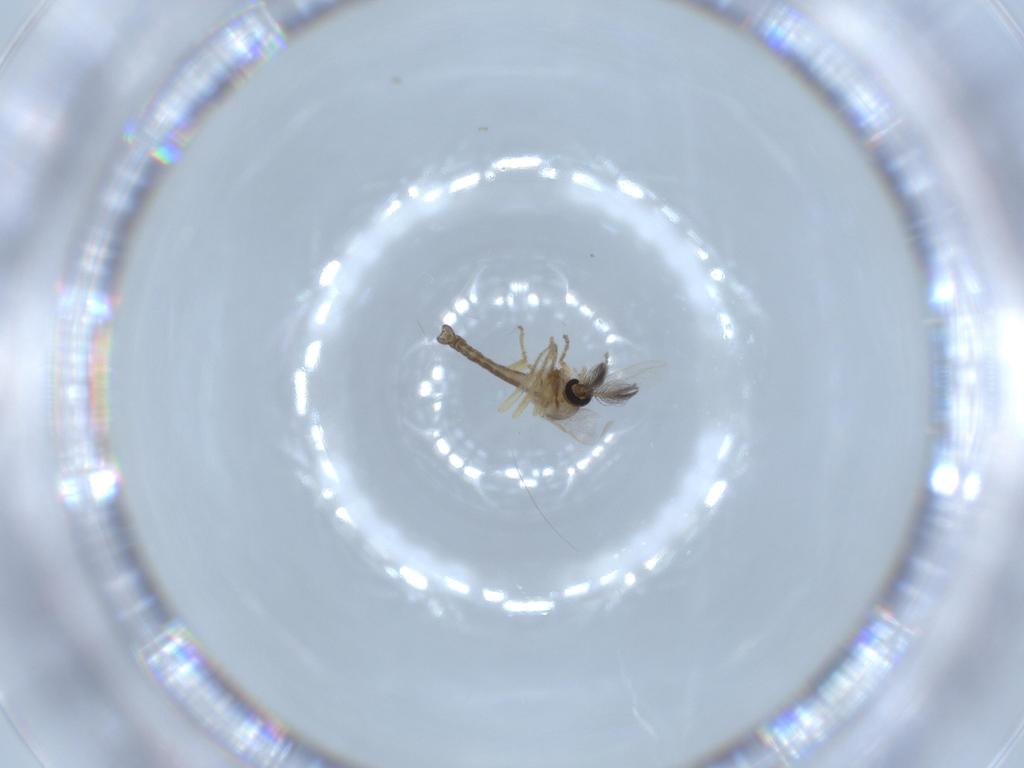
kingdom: Animalia
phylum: Arthropoda
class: Insecta
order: Diptera
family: Ceratopogonidae
